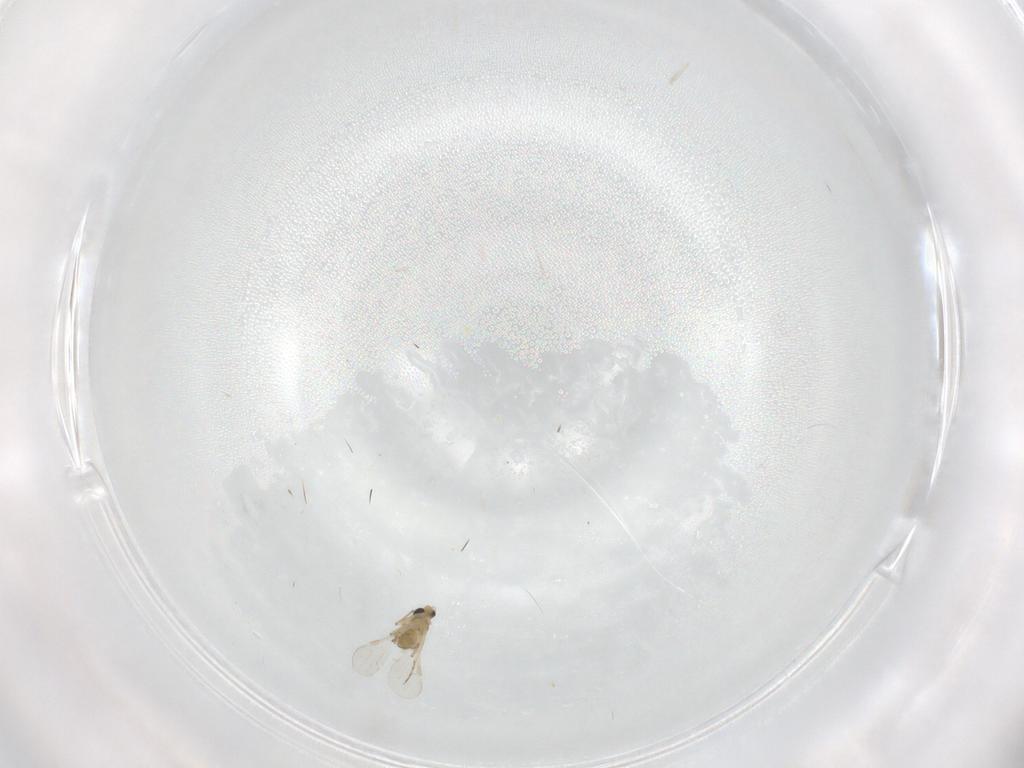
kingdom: Animalia
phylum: Arthropoda
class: Insecta
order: Diptera
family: Chironomidae
